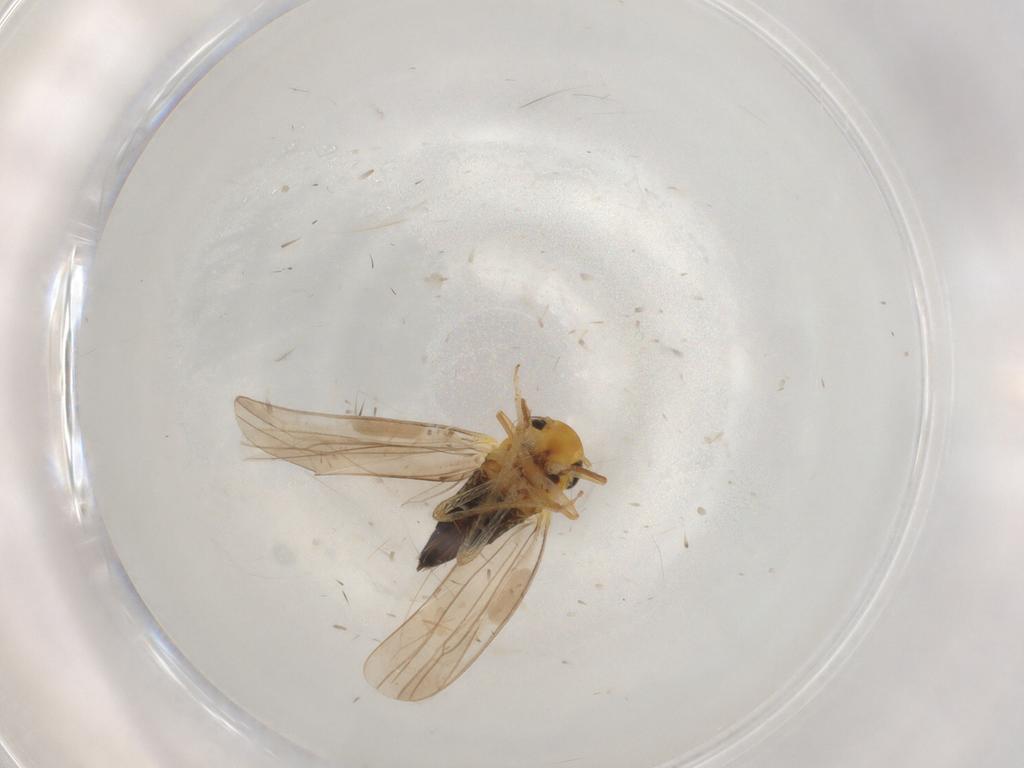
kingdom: Animalia
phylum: Arthropoda
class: Insecta
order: Hemiptera
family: Cicadellidae
